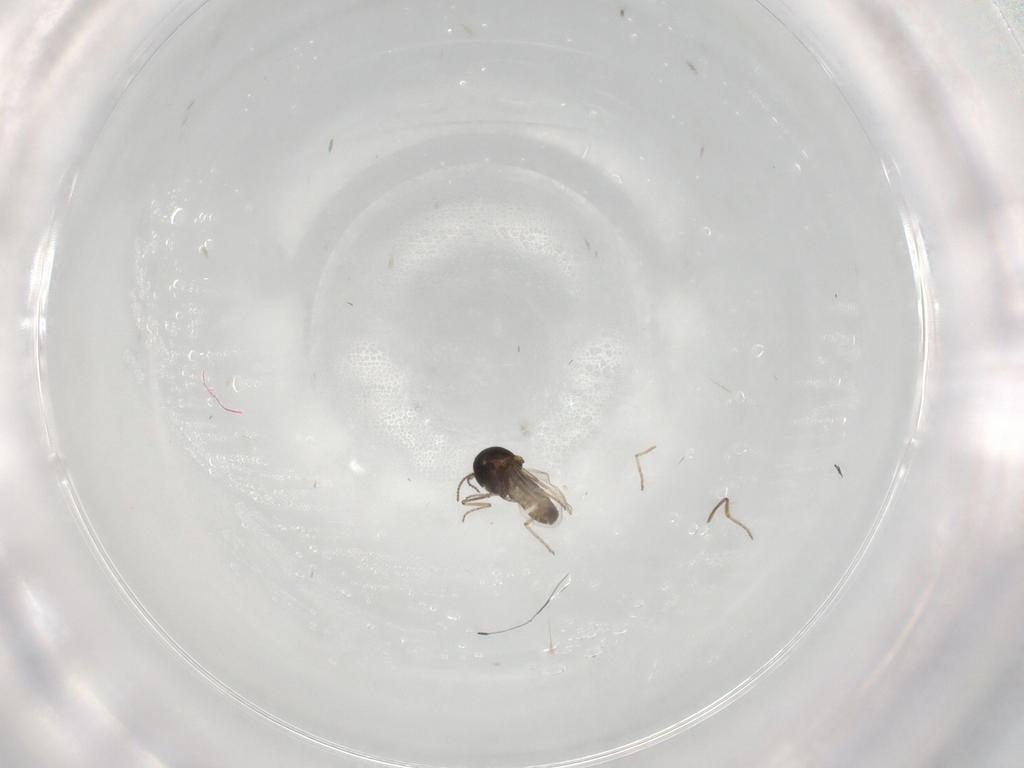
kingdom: Animalia
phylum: Arthropoda
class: Insecta
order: Diptera
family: Ceratopogonidae
